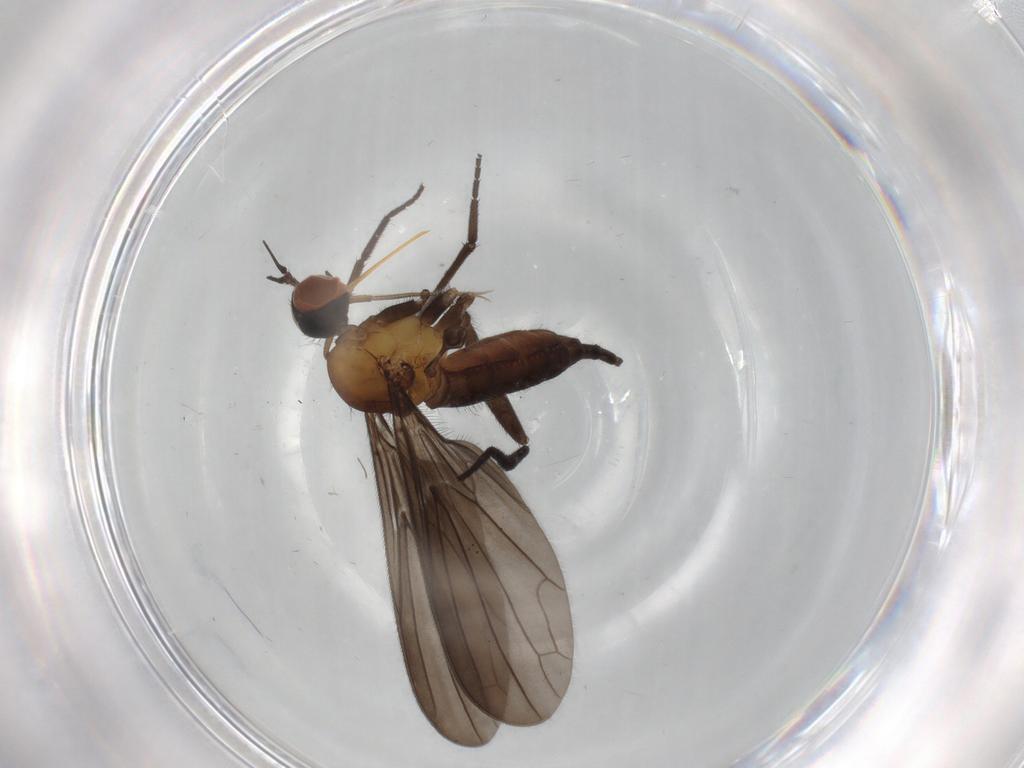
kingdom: Animalia
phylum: Arthropoda
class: Insecta
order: Diptera
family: Empididae
